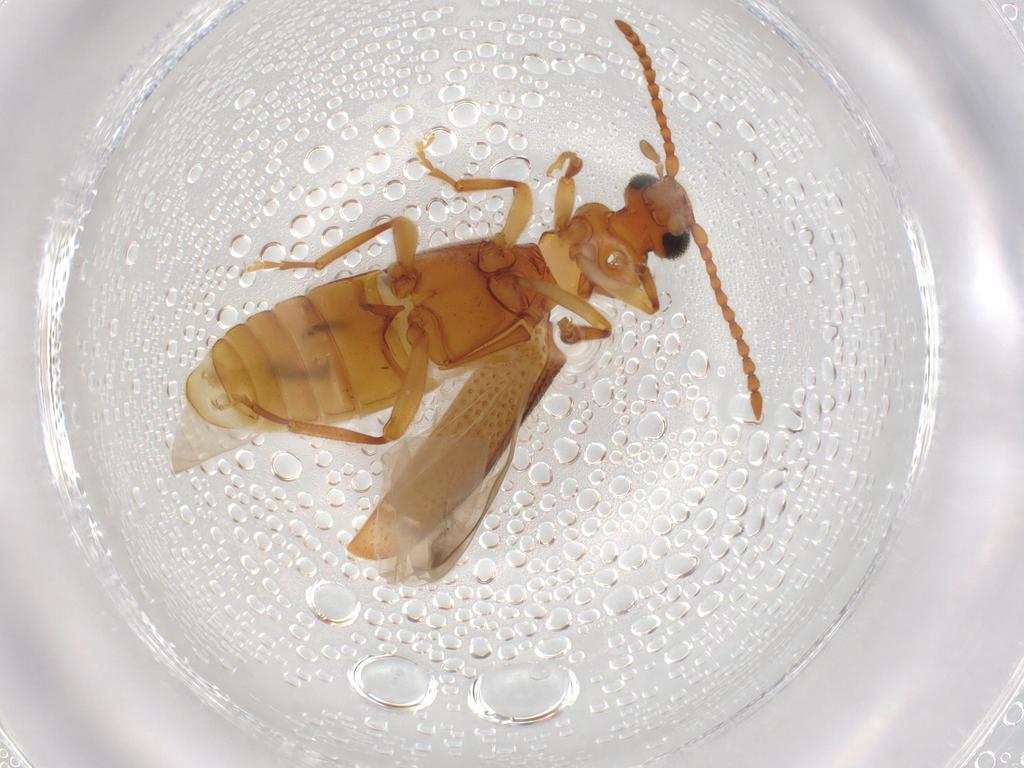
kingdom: Animalia
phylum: Arthropoda
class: Insecta
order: Coleoptera
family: Anthicidae
